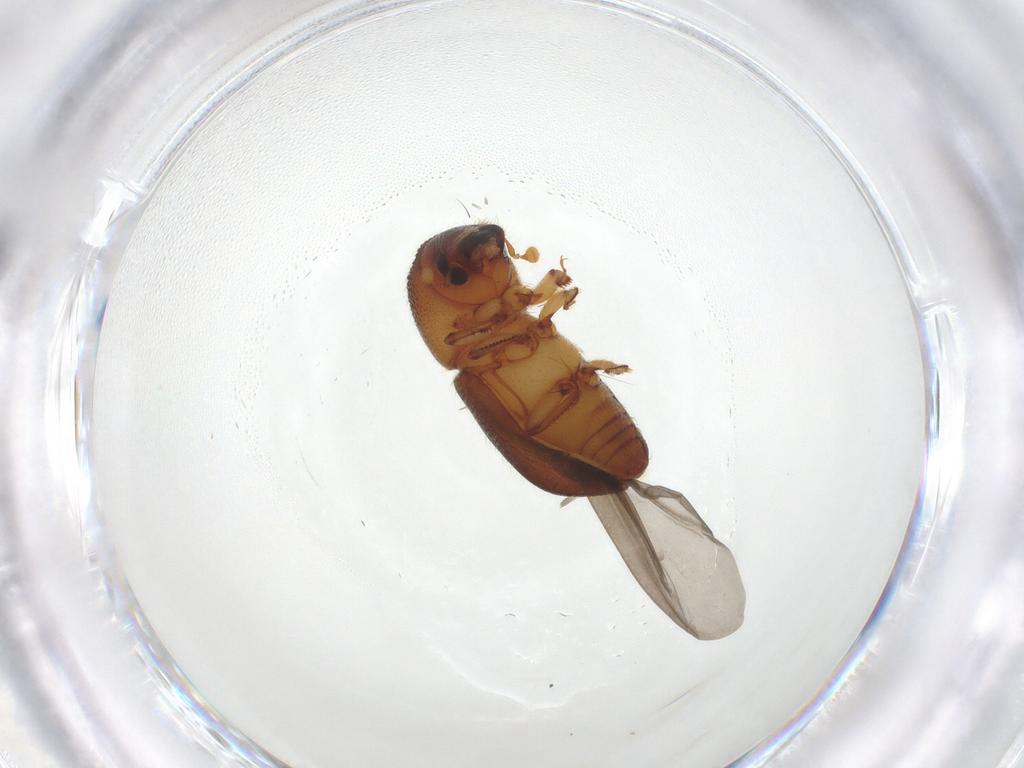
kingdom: Animalia
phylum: Arthropoda
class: Insecta
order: Coleoptera
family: Curculionidae
